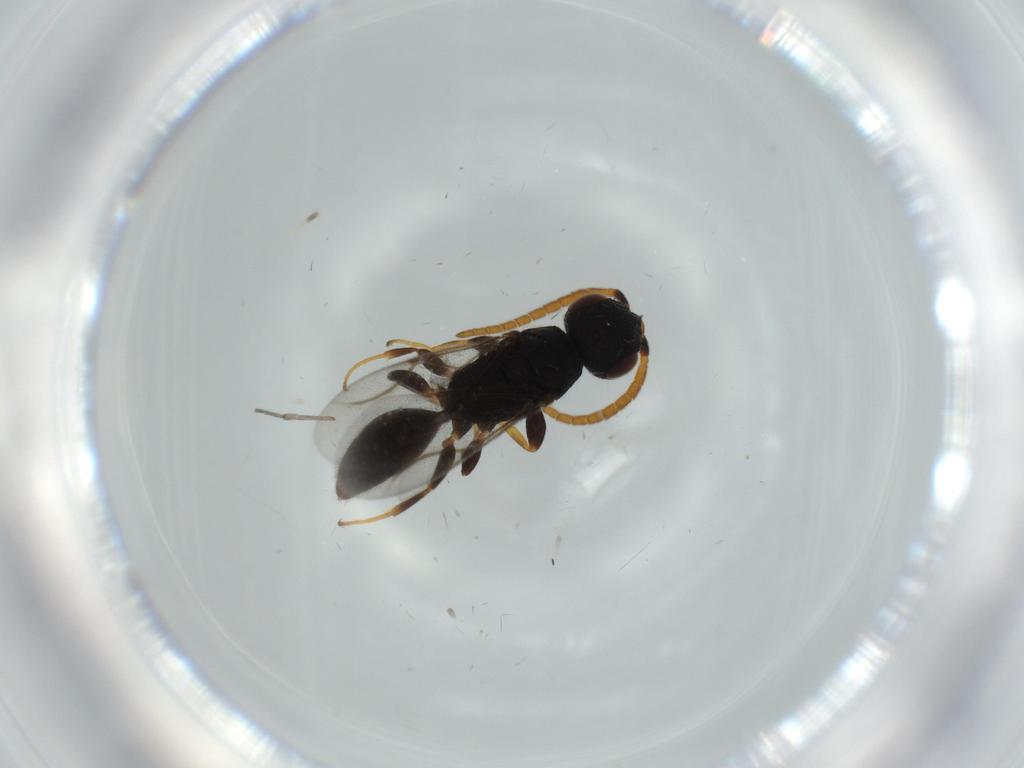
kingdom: Animalia
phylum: Arthropoda
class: Insecta
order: Hymenoptera
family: Bethylidae
